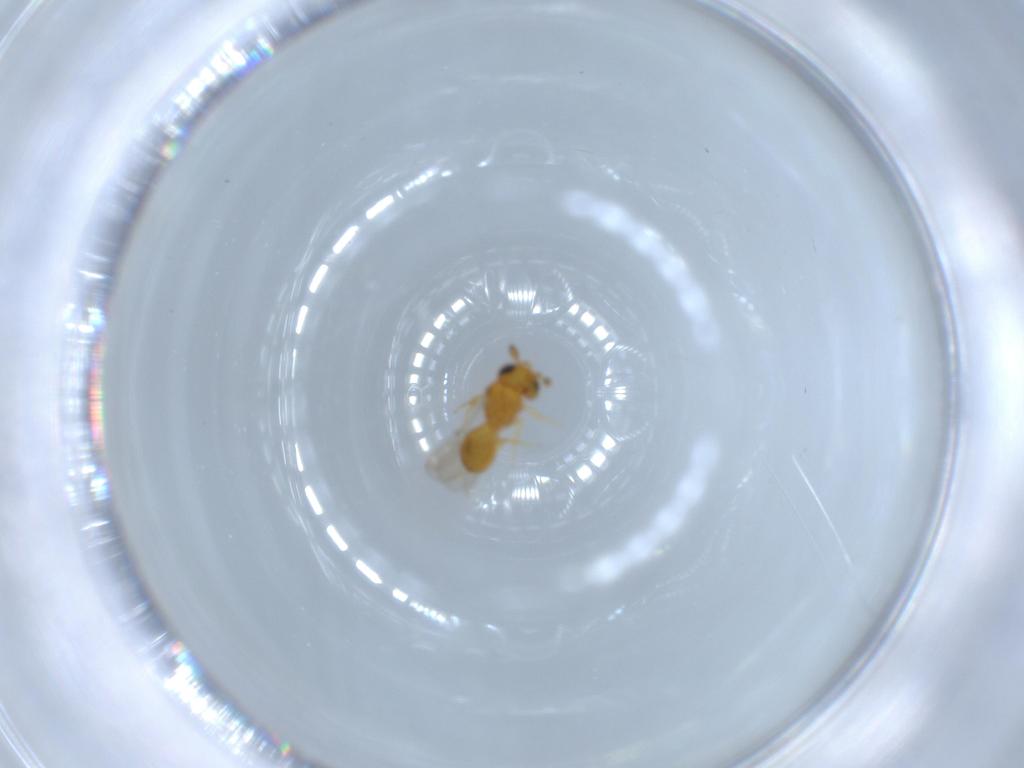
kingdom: Animalia
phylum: Arthropoda
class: Insecta
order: Hymenoptera
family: Scelionidae
